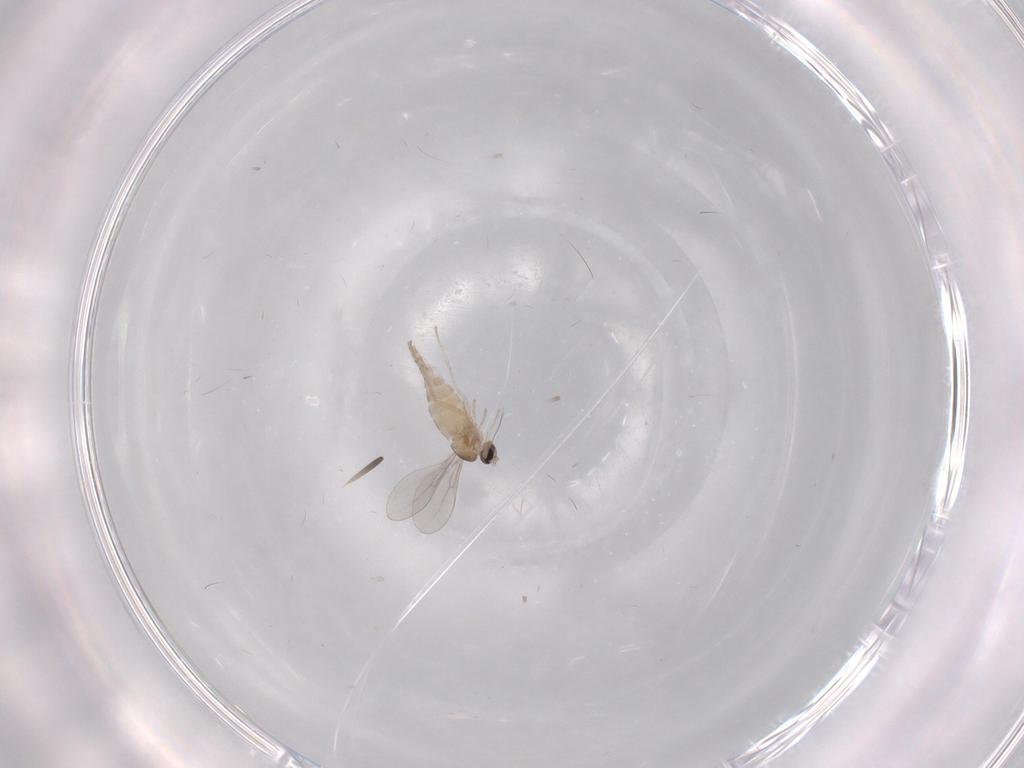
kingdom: Animalia
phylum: Arthropoda
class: Insecta
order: Diptera
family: Cecidomyiidae
